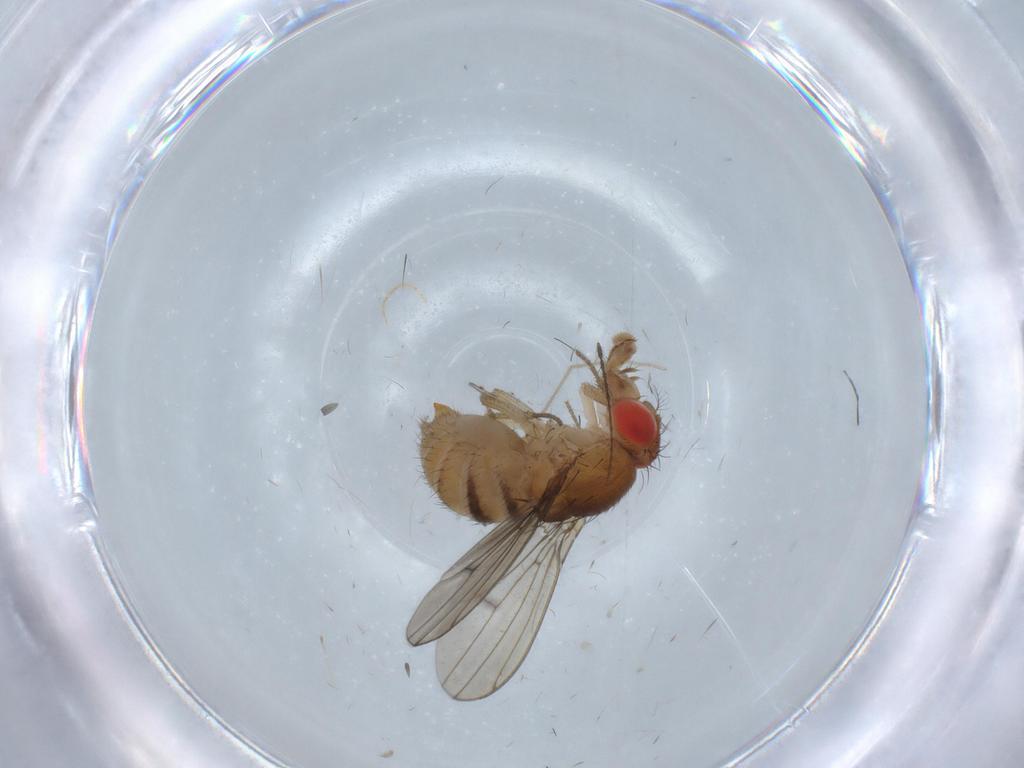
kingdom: Animalia
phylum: Arthropoda
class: Insecta
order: Diptera
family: Drosophilidae
